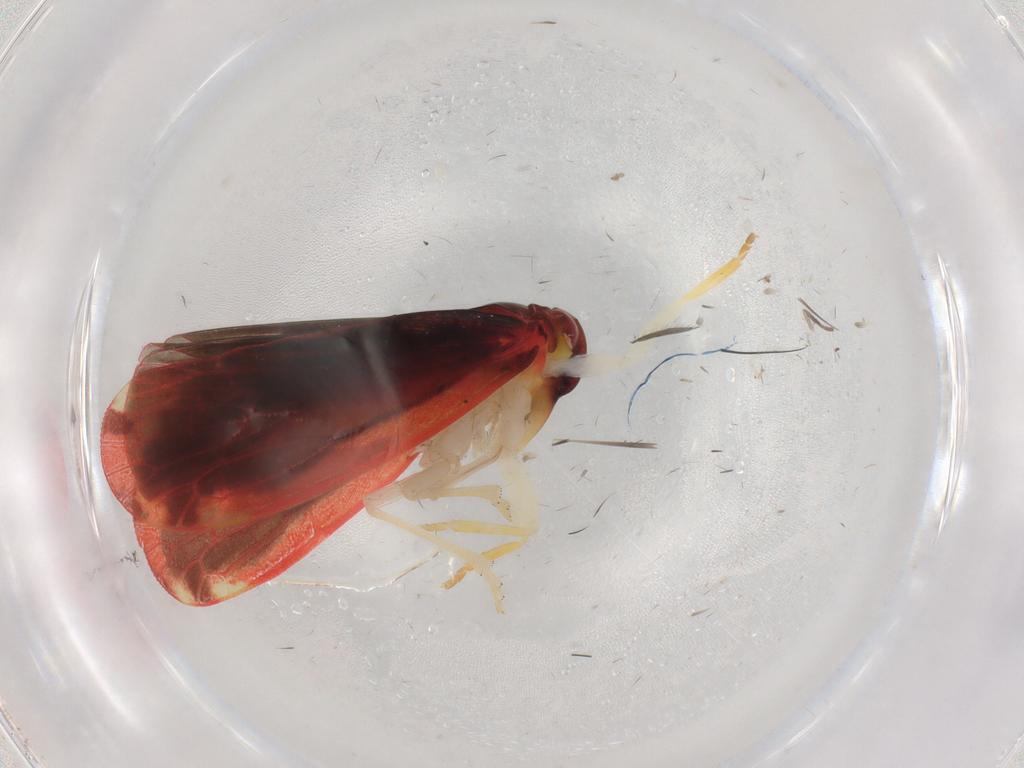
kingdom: Animalia
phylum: Arthropoda
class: Insecta
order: Hemiptera
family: Derbidae
